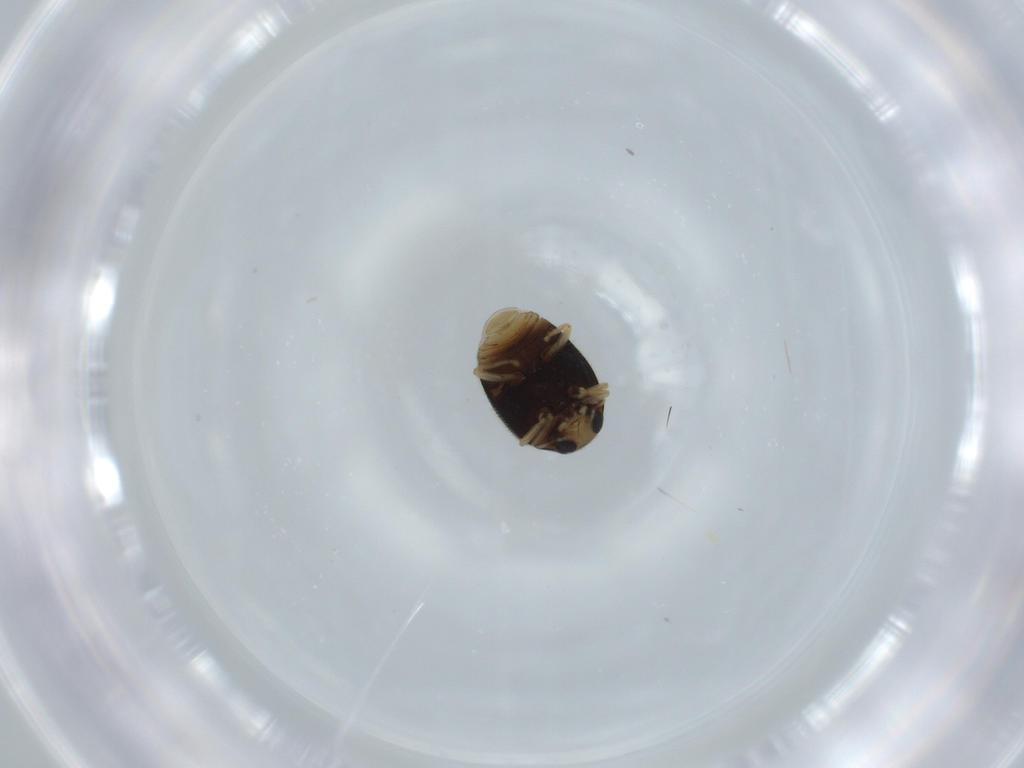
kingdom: Animalia
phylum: Arthropoda
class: Insecta
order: Coleoptera
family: Coccinellidae
